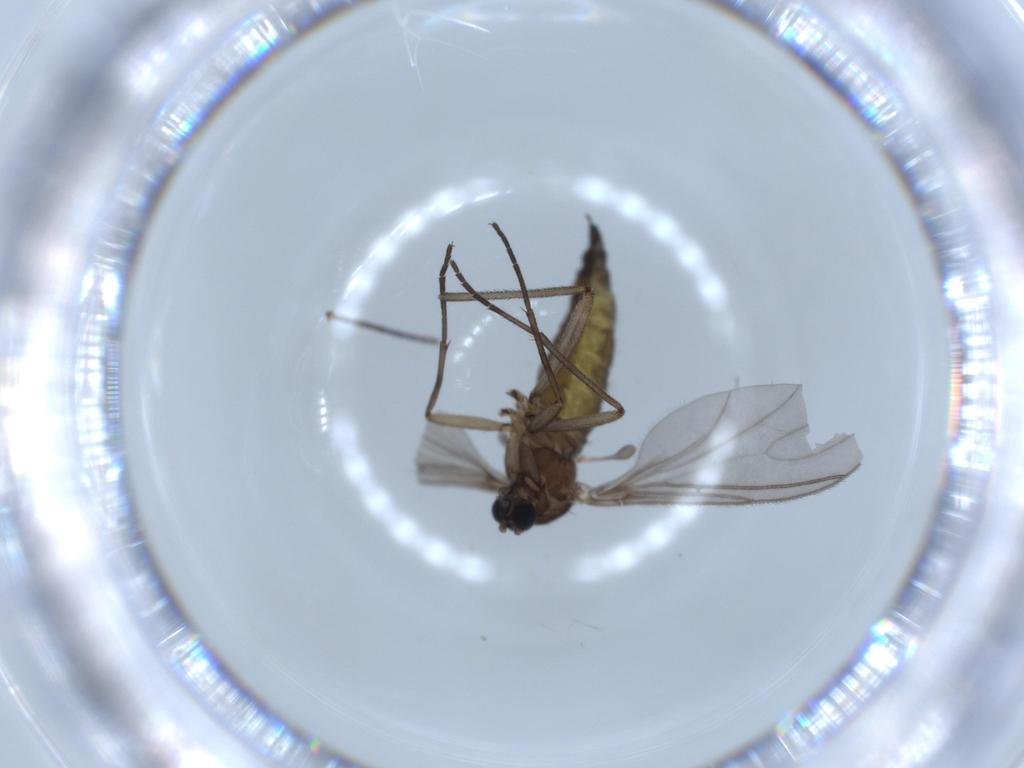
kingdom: Animalia
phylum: Arthropoda
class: Insecta
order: Diptera
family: Sciaridae
